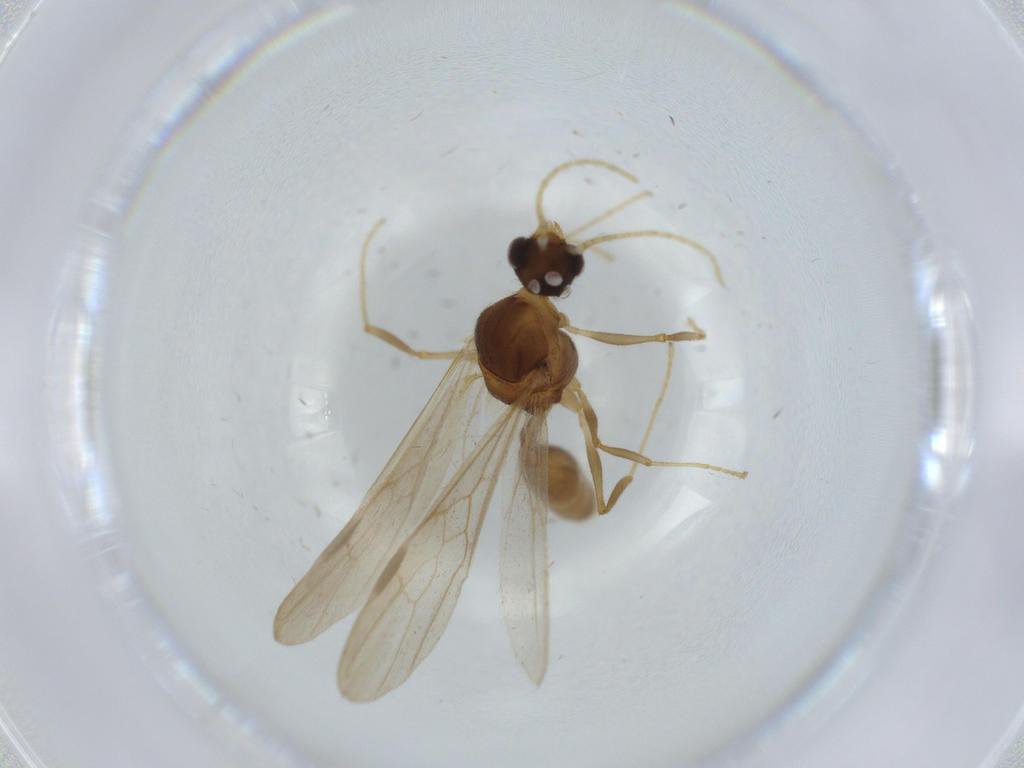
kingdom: Animalia
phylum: Arthropoda
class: Insecta
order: Hymenoptera
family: Formicidae
